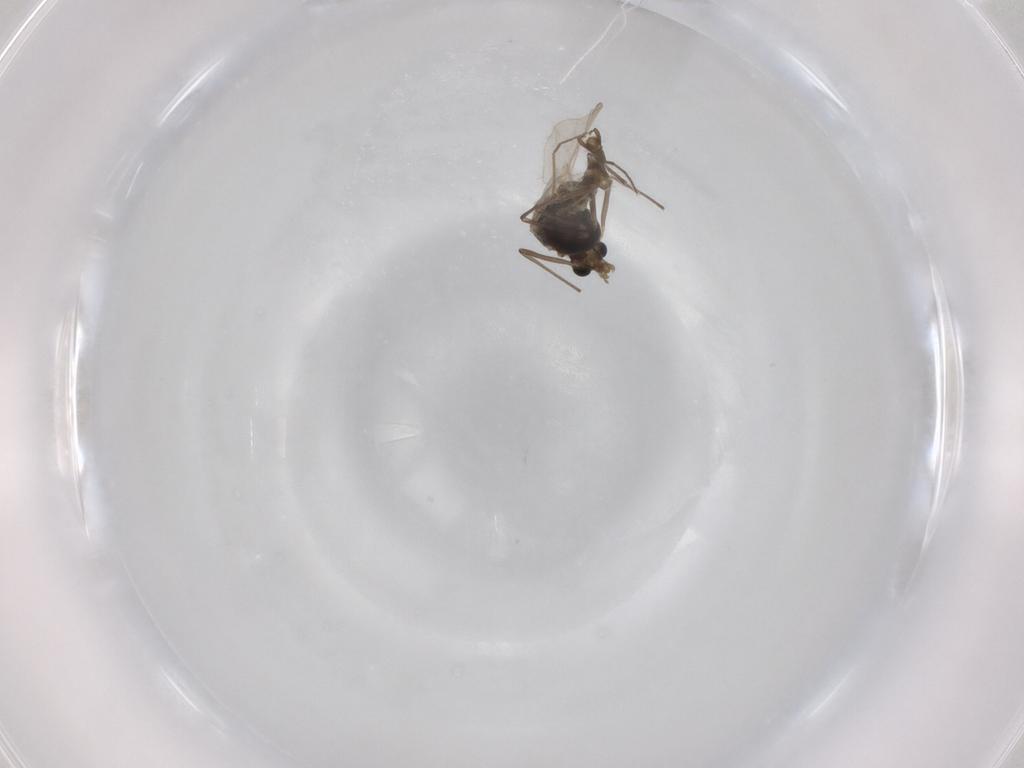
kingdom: Animalia
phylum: Arthropoda
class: Insecta
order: Diptera
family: Chironomidae
